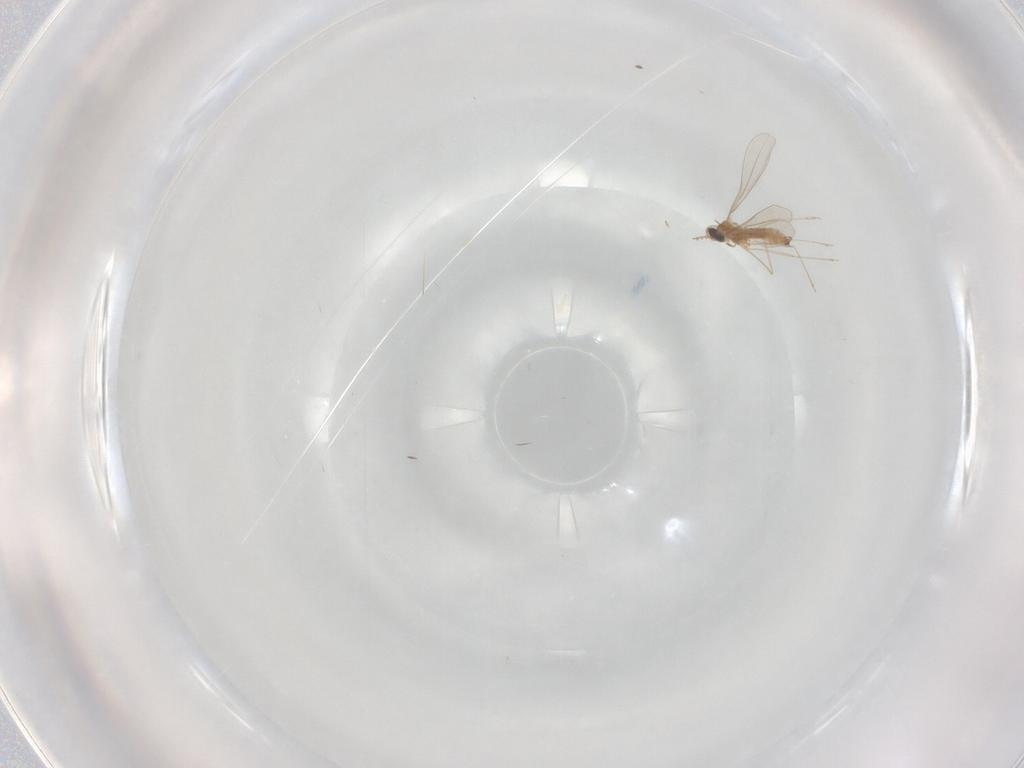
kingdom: Animalia
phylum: Arthropoda
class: Insecta
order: Diptera
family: Cecidomyiidae
